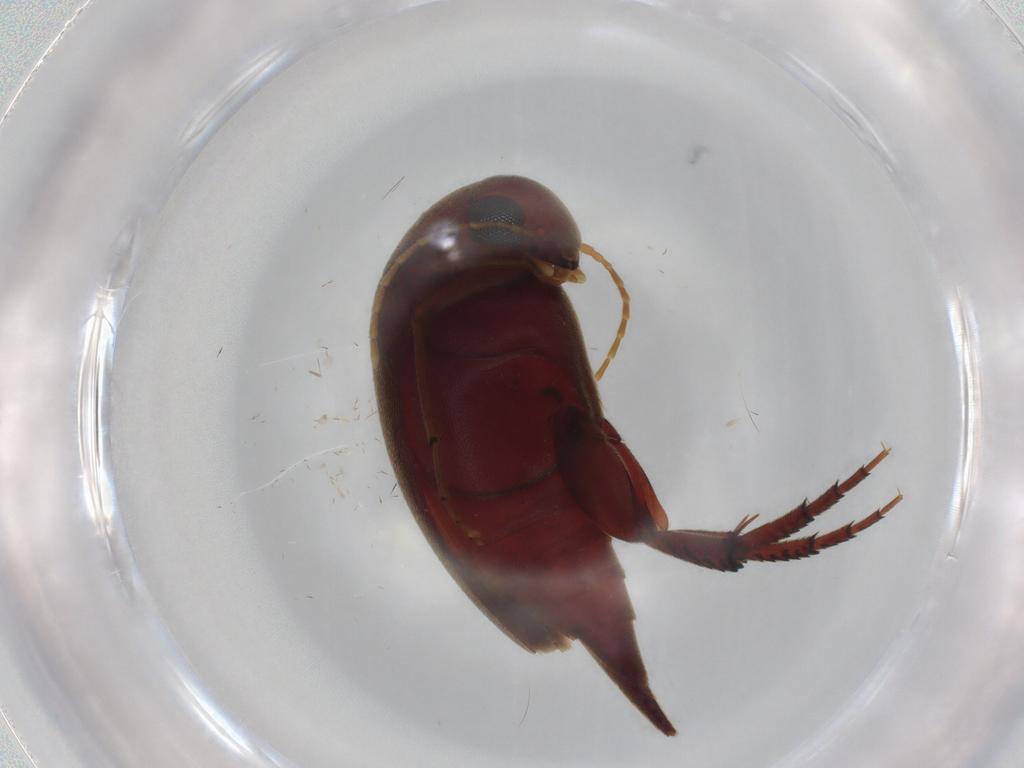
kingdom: Animalia
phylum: Arthropoda
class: Insecta
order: Coleoptera
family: Mordellidae
